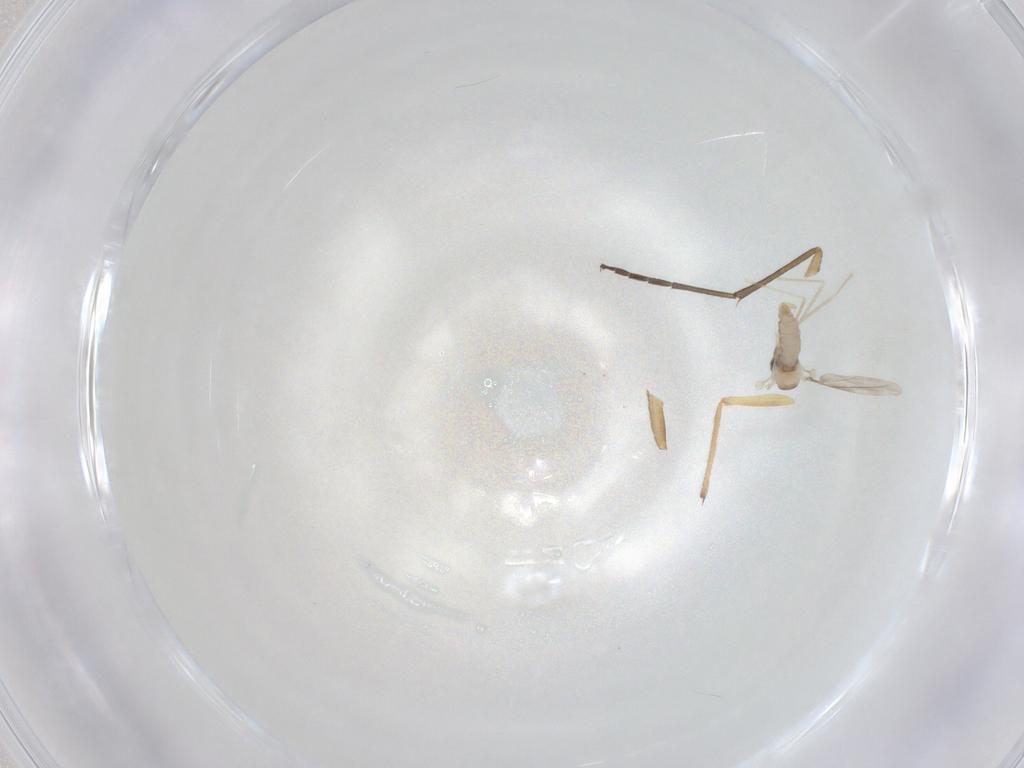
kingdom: Animalia
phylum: Arthropoda
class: Insecta
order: Diptera
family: Cecidomyiidae
